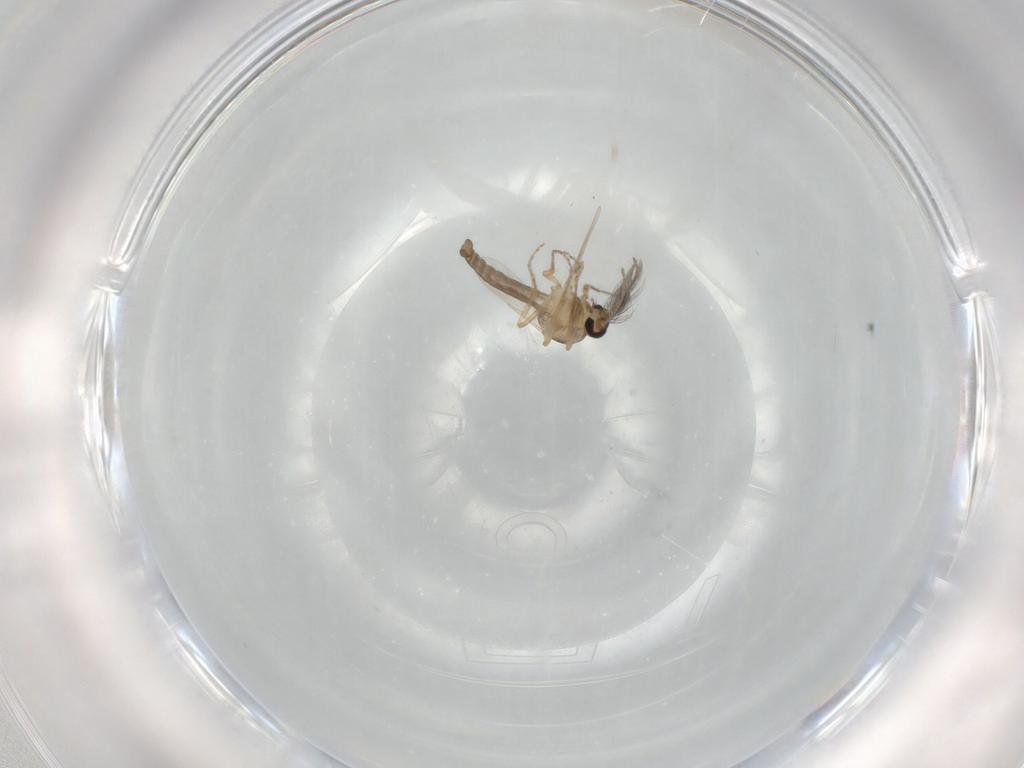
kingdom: Animalia
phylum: Arthropoda
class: Insecta
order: Diptera
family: Ceratopogonidae
